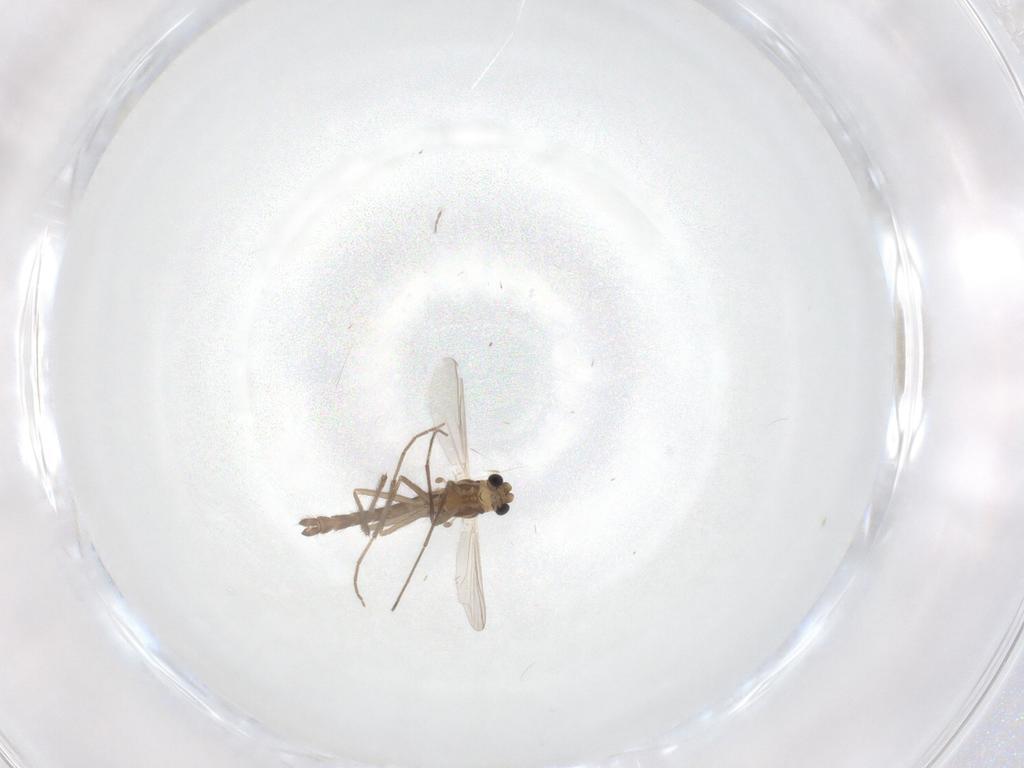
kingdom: Animalia
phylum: Arthropoda
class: Insecta
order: Diptera
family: Chironomidae
